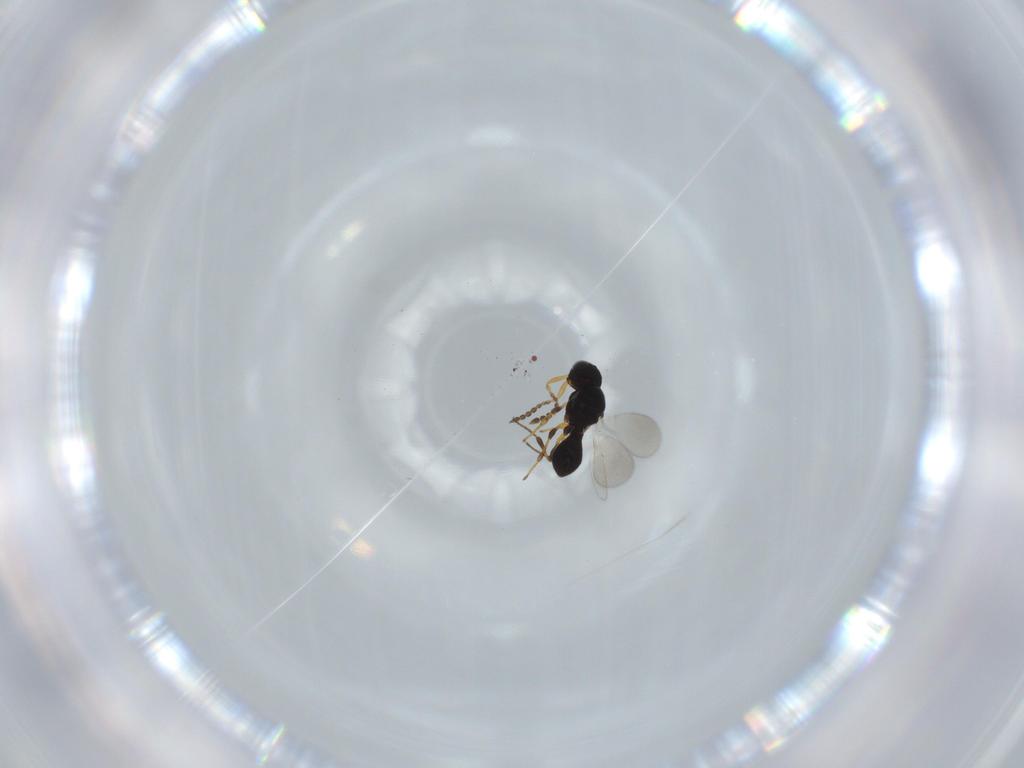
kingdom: Animalia
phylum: Arthropoda
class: Insecta
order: Hymenoptera
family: Platygastridae
